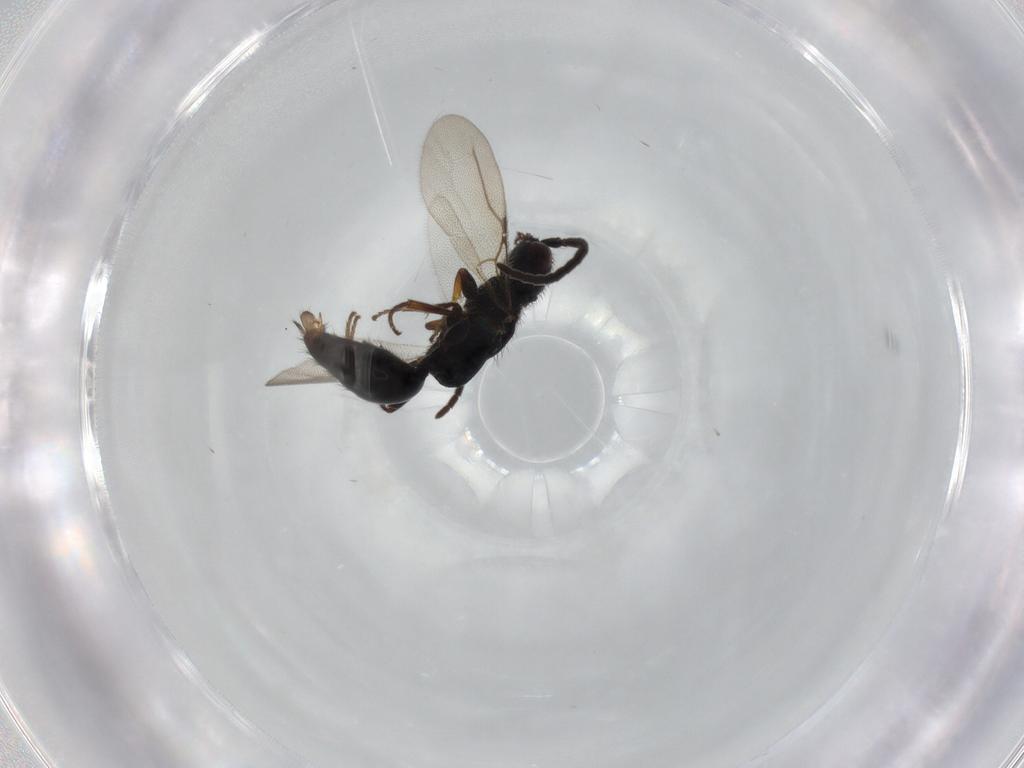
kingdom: Animalia
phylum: Arthropoda
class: Insecta
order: Hymenoptera
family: Bethylidae
